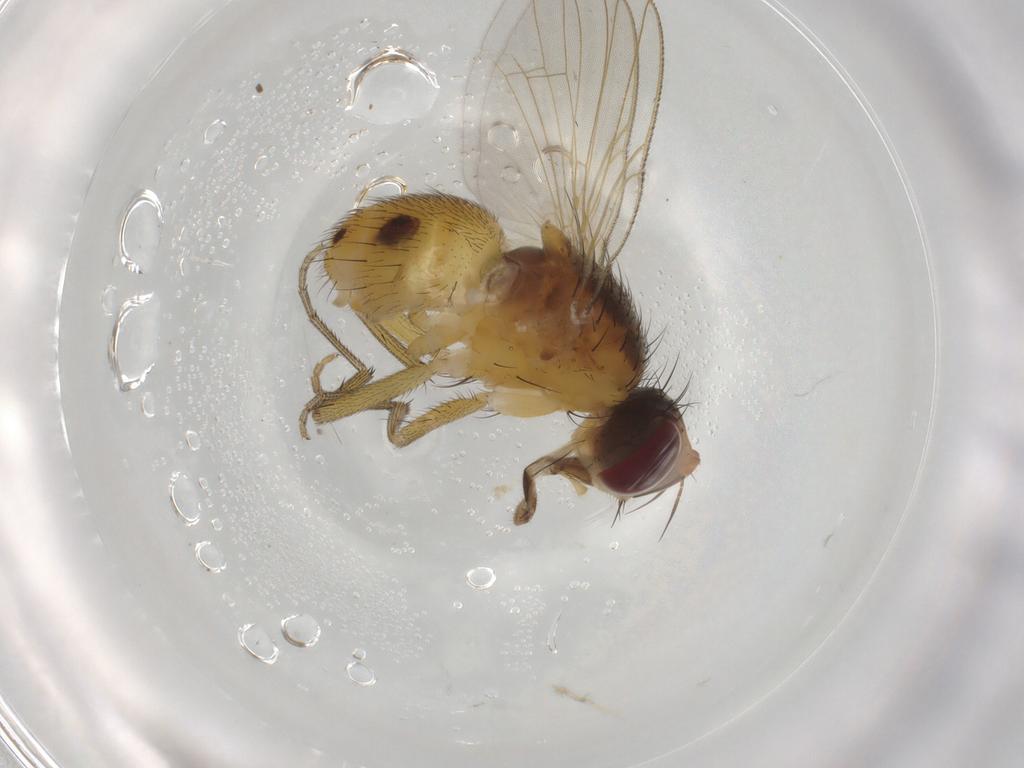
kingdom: Animalia
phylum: Arthropoda
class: Insecta
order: Diptera
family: Muscidae
